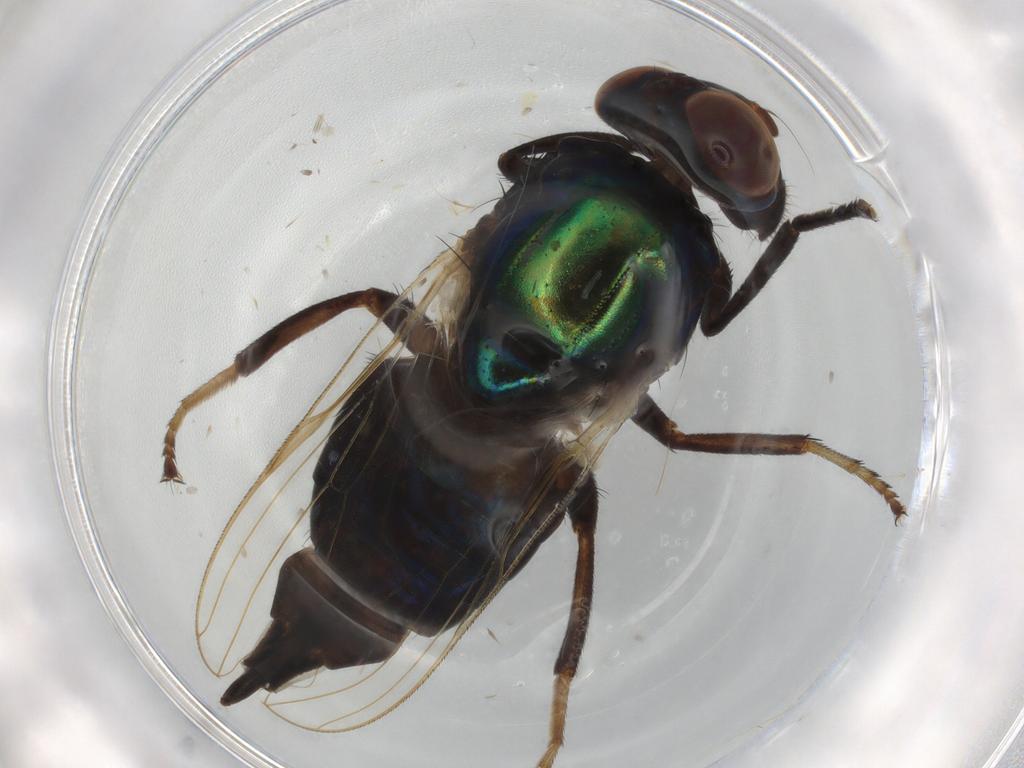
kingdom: Animalia
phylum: Arthropoda
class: Insecta
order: Diptera
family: Ulidiidae
